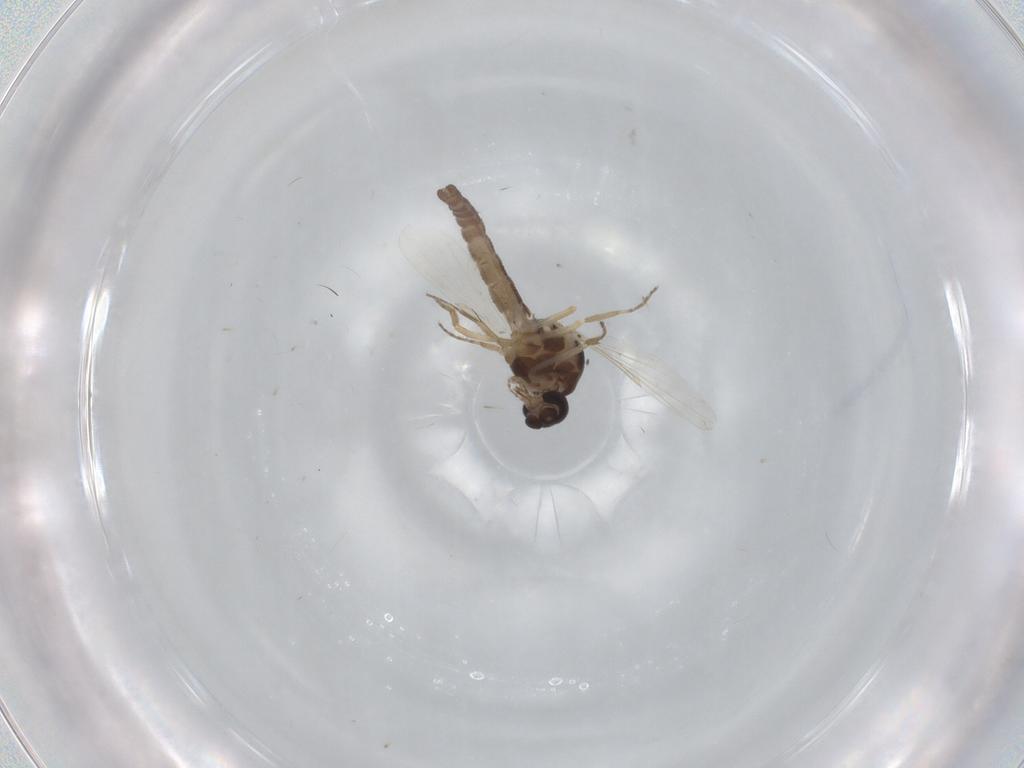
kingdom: Animalia
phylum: Arthropoda
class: Insecta
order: Diptera
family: Ceratopogonidae
